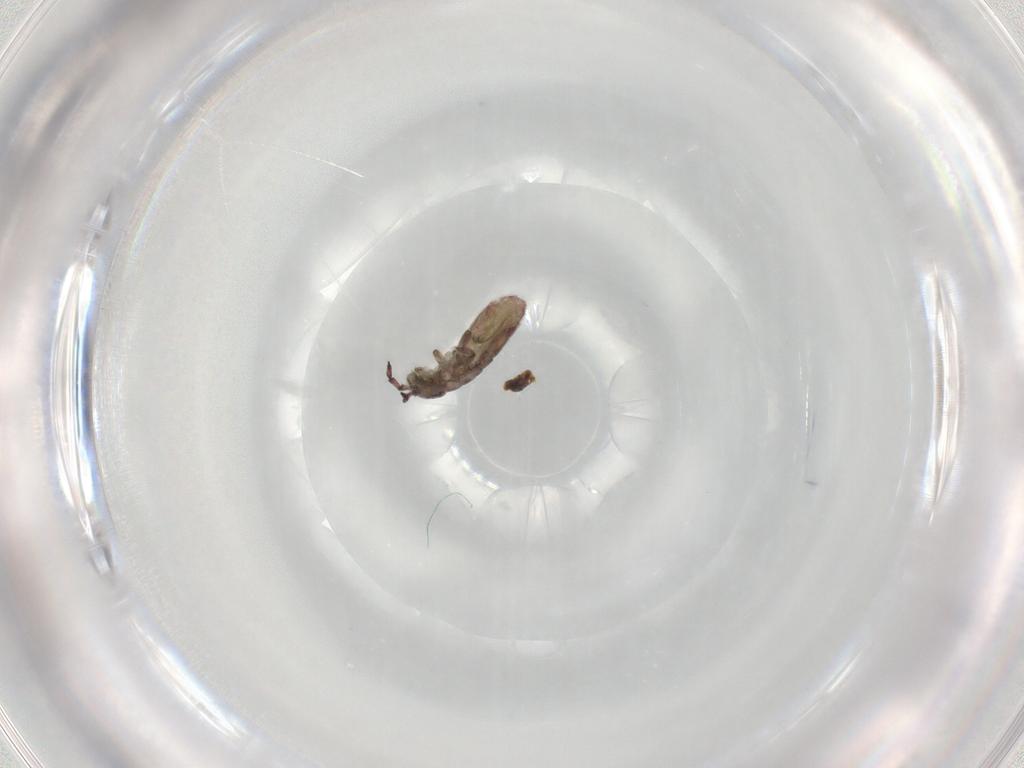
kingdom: Animalia
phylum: Arthropoda
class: Collembola
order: Entomobryomorpha
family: Isotomidae
